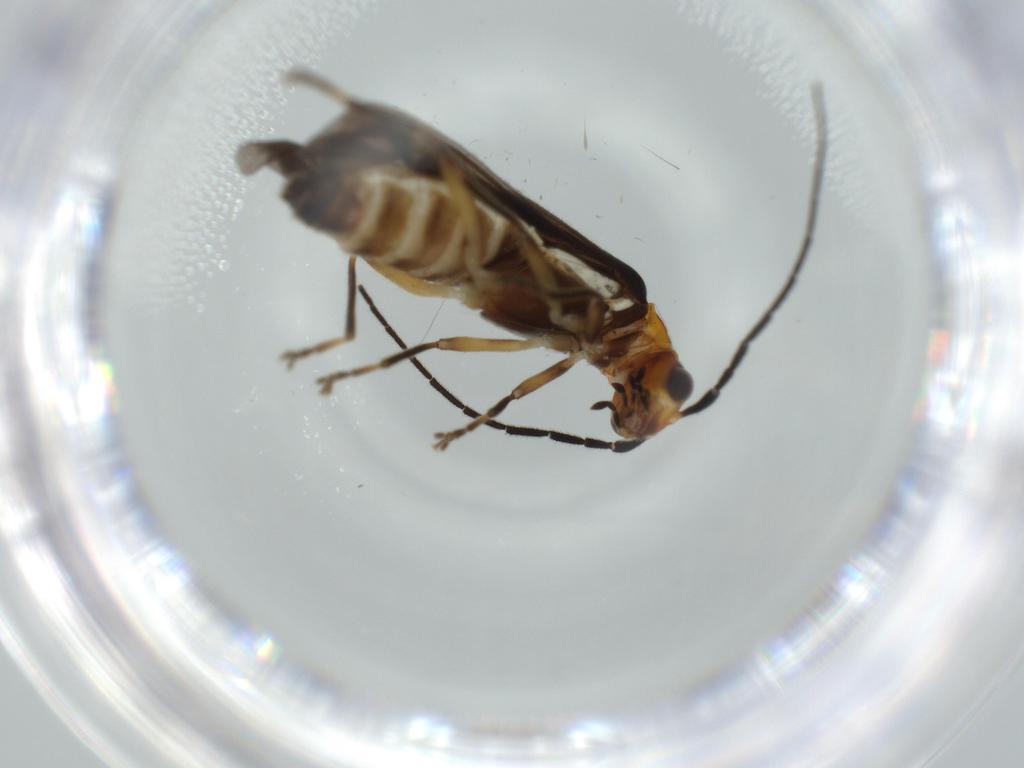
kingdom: Animalia
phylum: Arthropoda
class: Insecta
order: Coleoptera
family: Cantharidae
